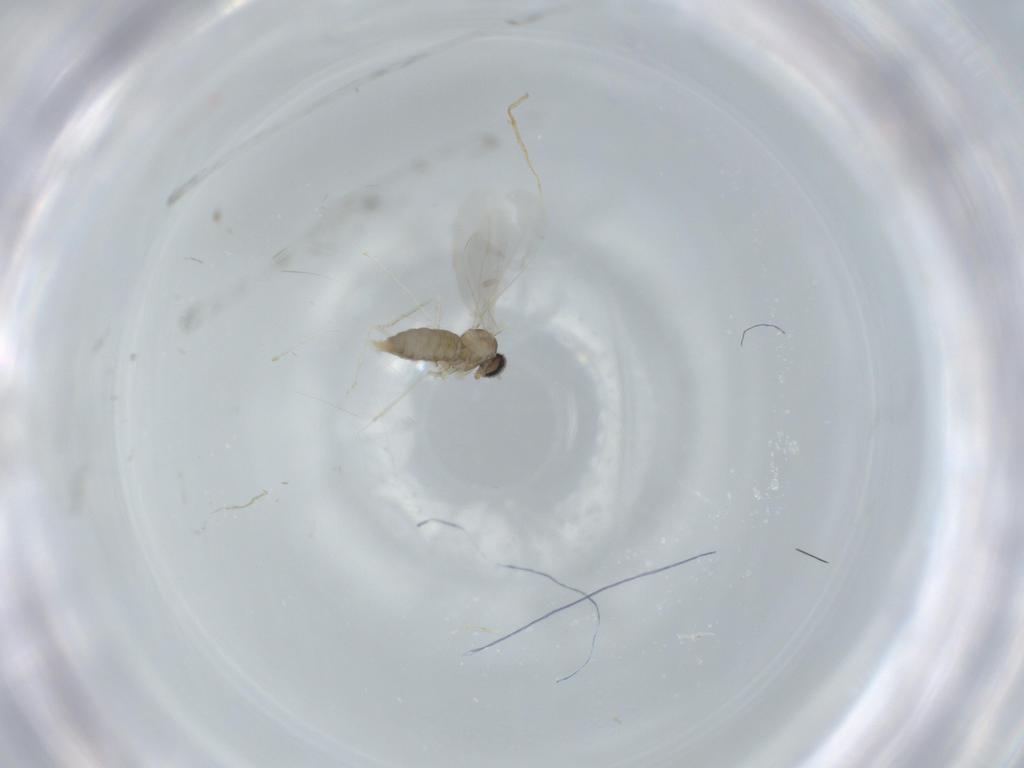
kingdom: Animalia
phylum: Arthropoda
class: Insecta
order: Diptera
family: Cecidomyiidae
